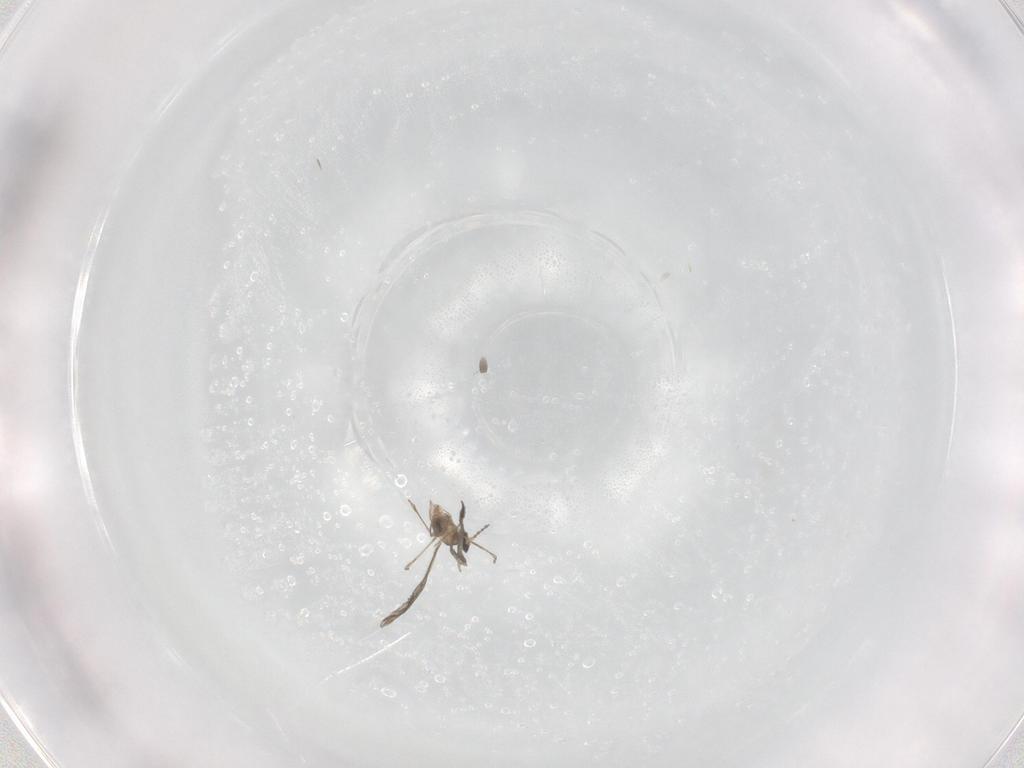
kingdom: Animalia
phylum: Arthropoda
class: Insecta
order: Diptera
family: Cecidomyiidae
